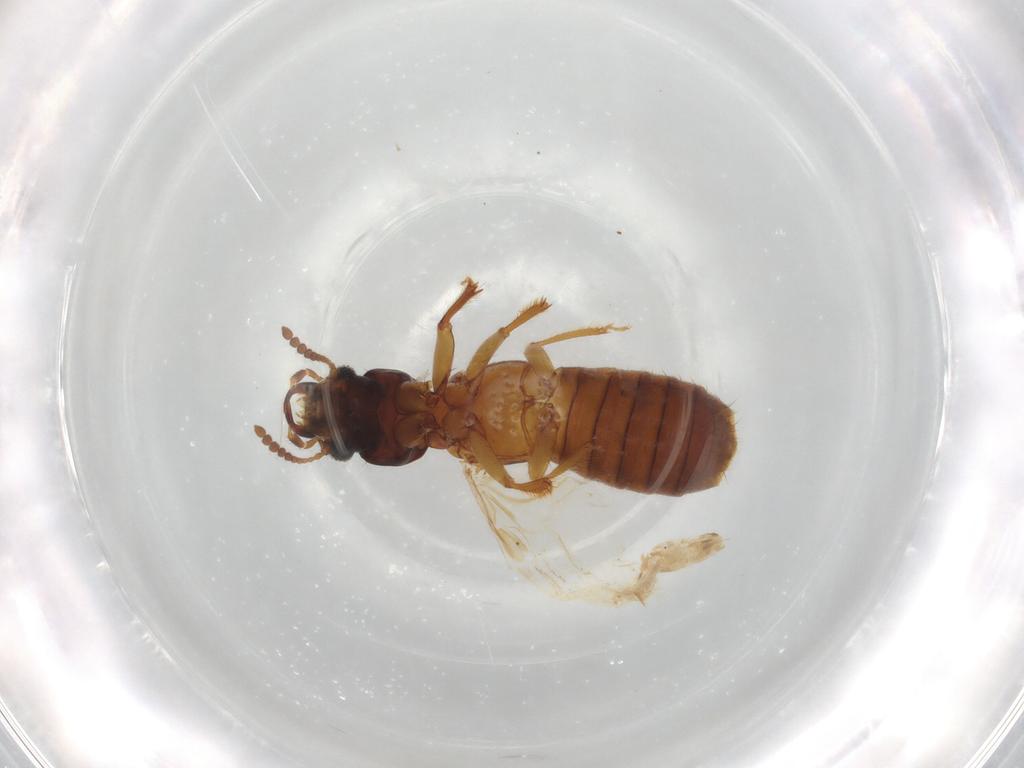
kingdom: Animalia
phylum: Arthropoda
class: Insecta
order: Coleoptera
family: Staphylinidae
